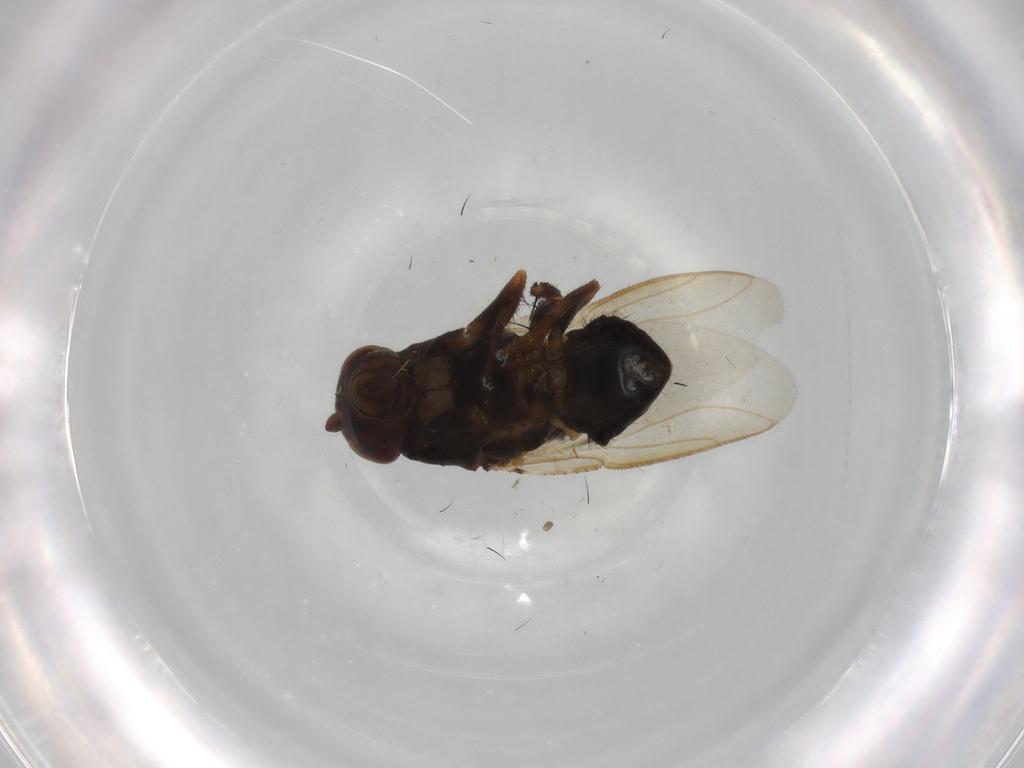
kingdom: Animalia
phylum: Arthropoda
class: Insecta
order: Diptera
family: Sphaeroceridae
